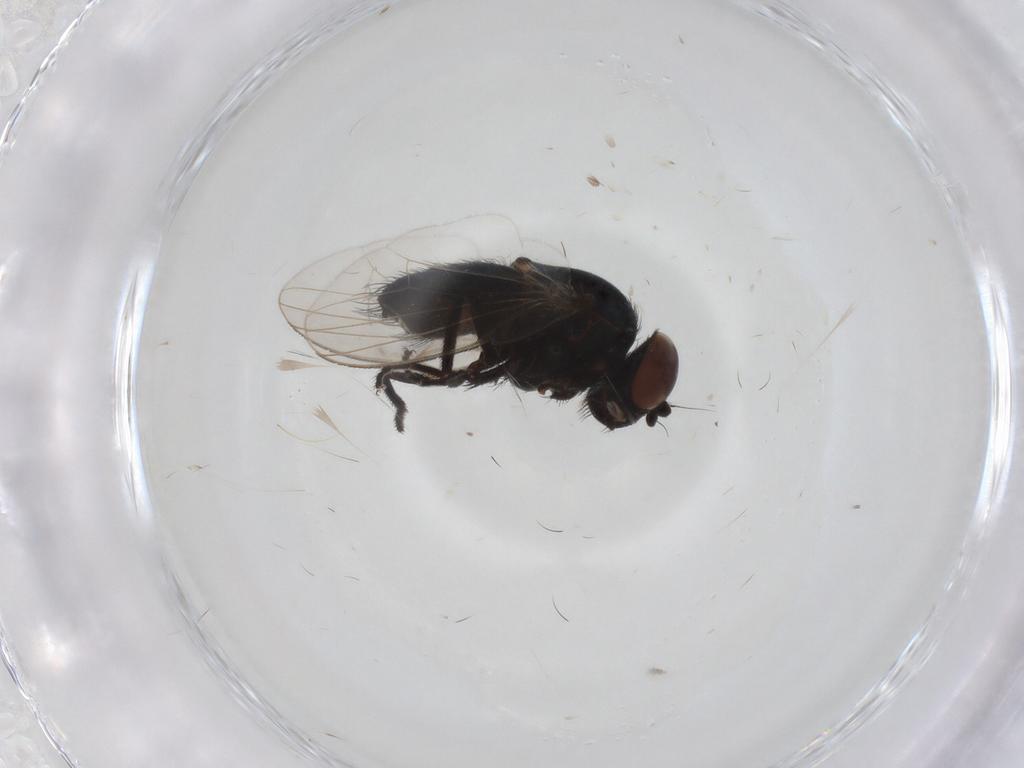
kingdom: Animalia
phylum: Arthropoda
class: Insecta
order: Diptera
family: Chloropidae
